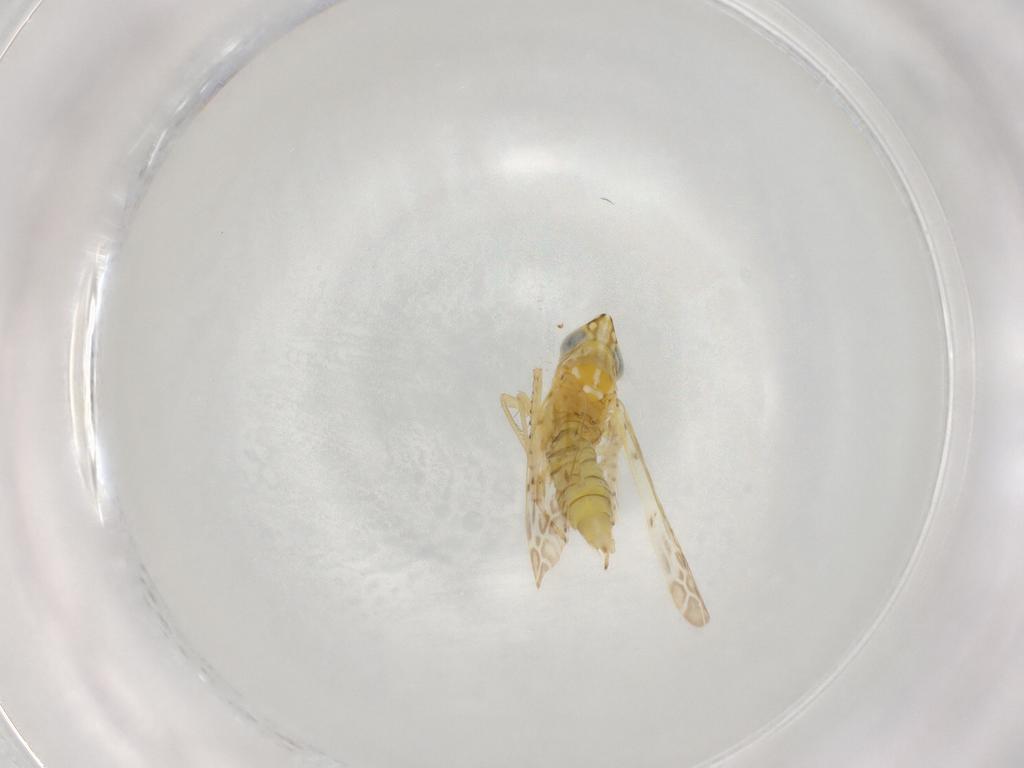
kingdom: Animalia
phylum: Arthropoda
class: Insecta
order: Hemiptera
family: Cicadellidae
